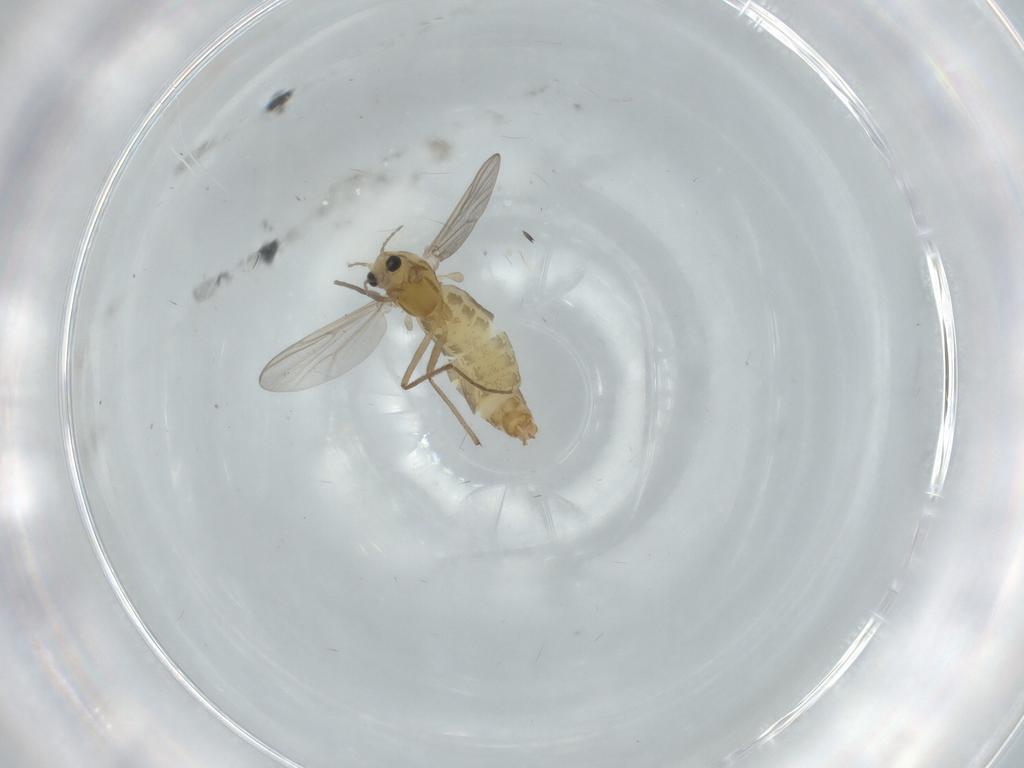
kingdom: Animalia
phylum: Arthropoda
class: Insecta
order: Diptera
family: Chironomidae
